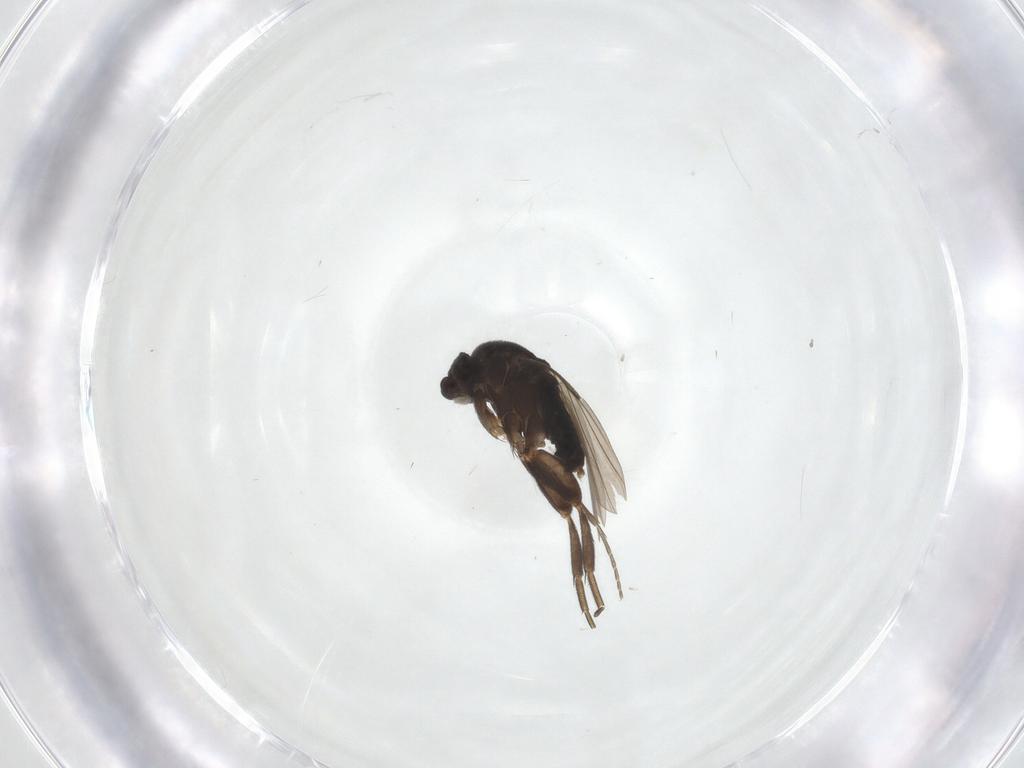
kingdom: Animalia
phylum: Arthropoda
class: Insecta
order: Diptera
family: Phoridae
